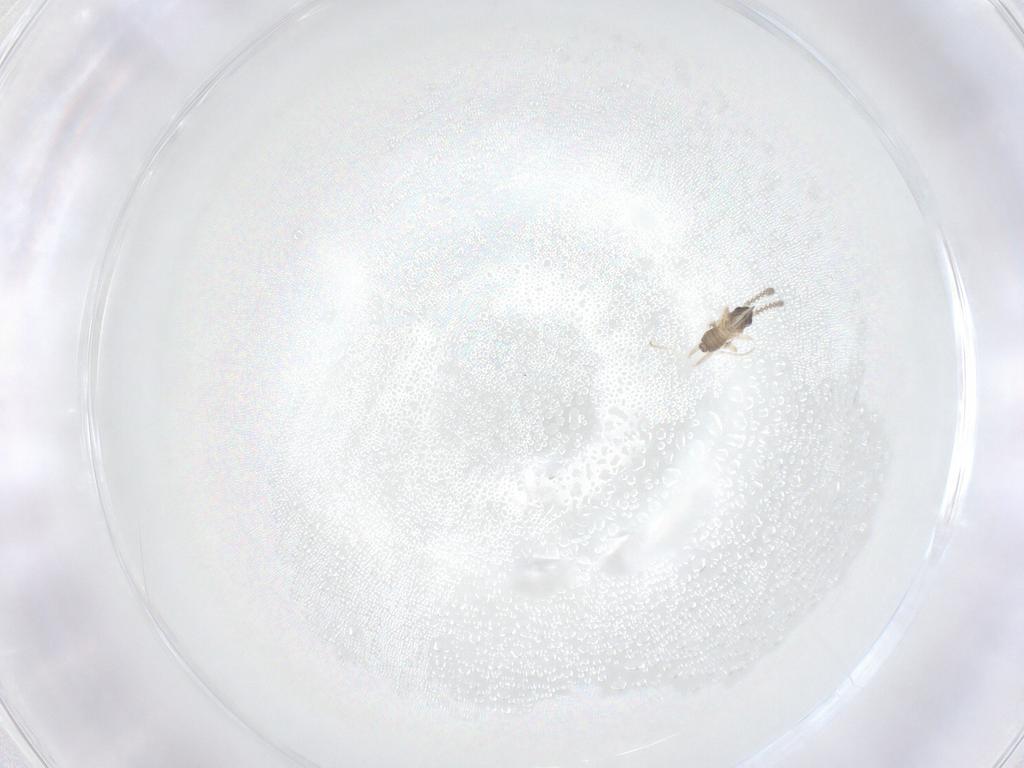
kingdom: Animalia
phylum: Arthropoda
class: Insecta
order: Diptera
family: Cecidomyiidae
